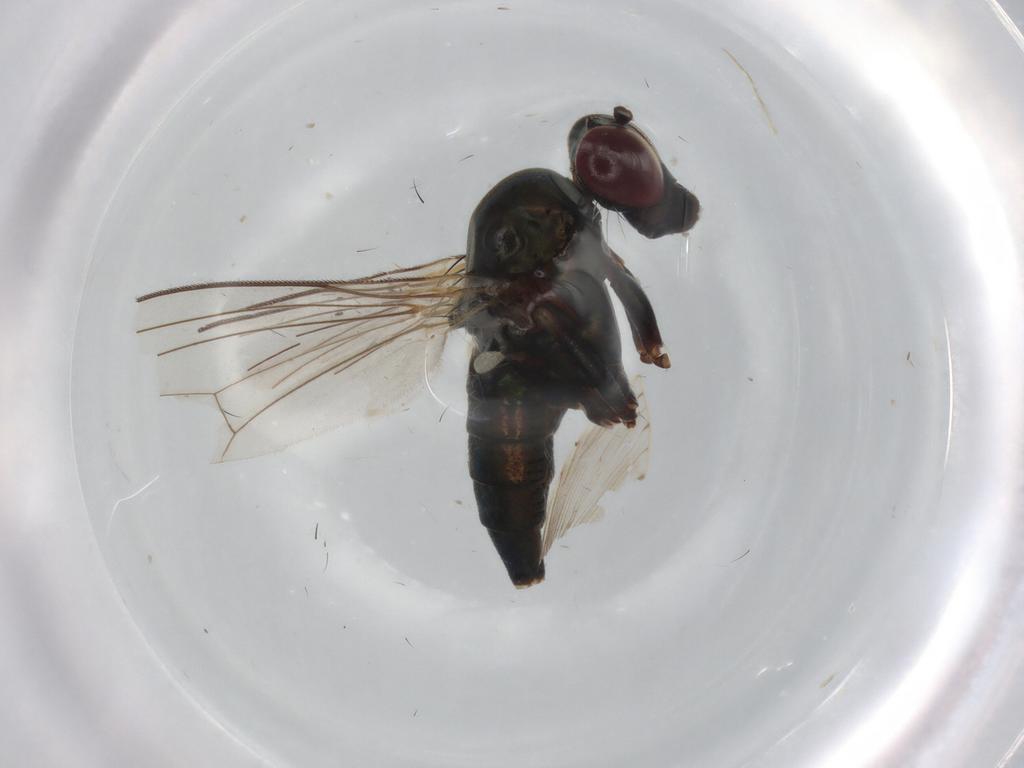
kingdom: Animalia
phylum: Arthropoda
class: Insecta
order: Diptera
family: Dolichopodidae
